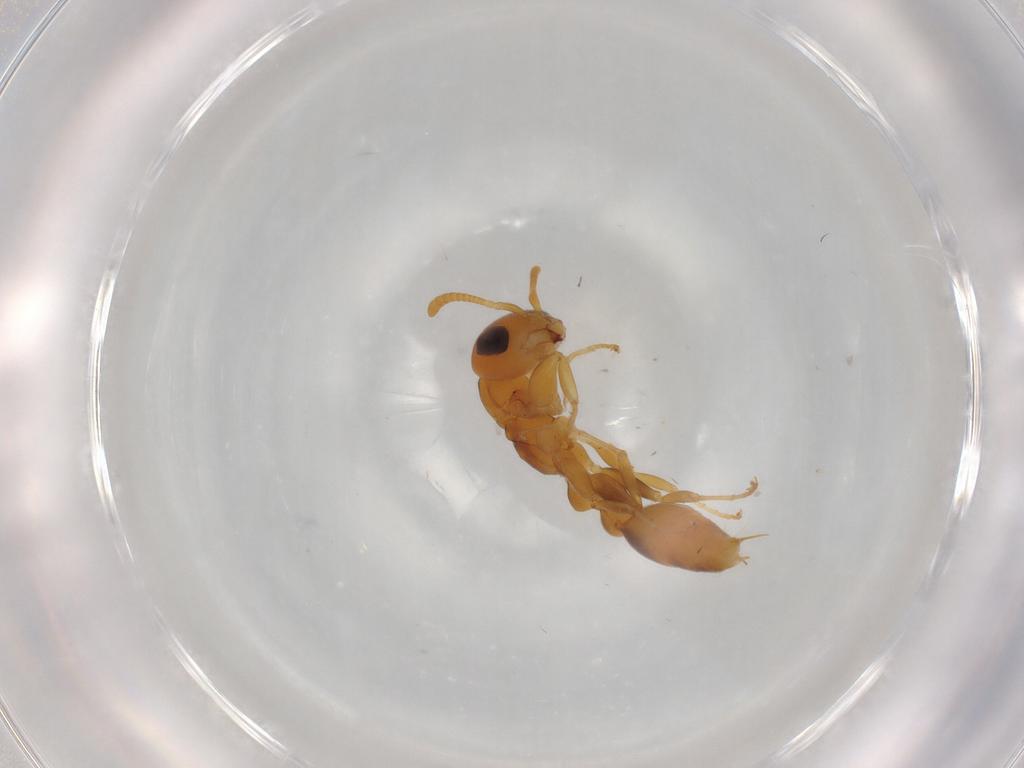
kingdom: Animalia
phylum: Arthropoda
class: Insecta
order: Hymenoptera
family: Formicidae
